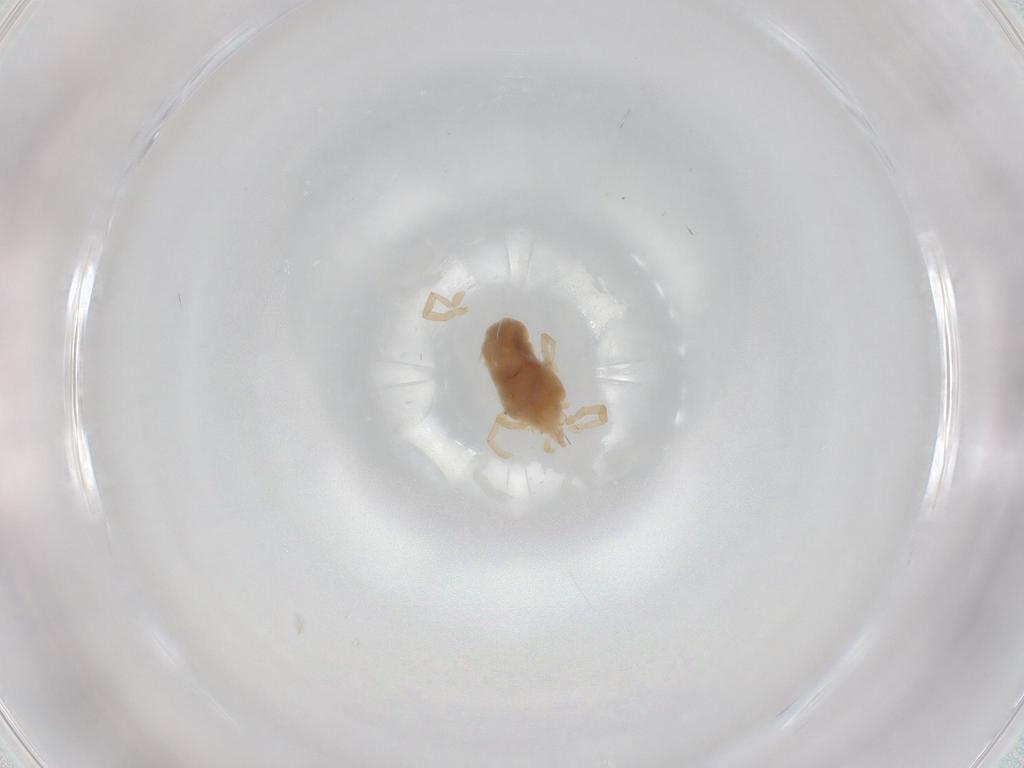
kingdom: Animalia
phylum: Arthropoda
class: Arachnida
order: Trombidiformes
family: Erythraeidae
